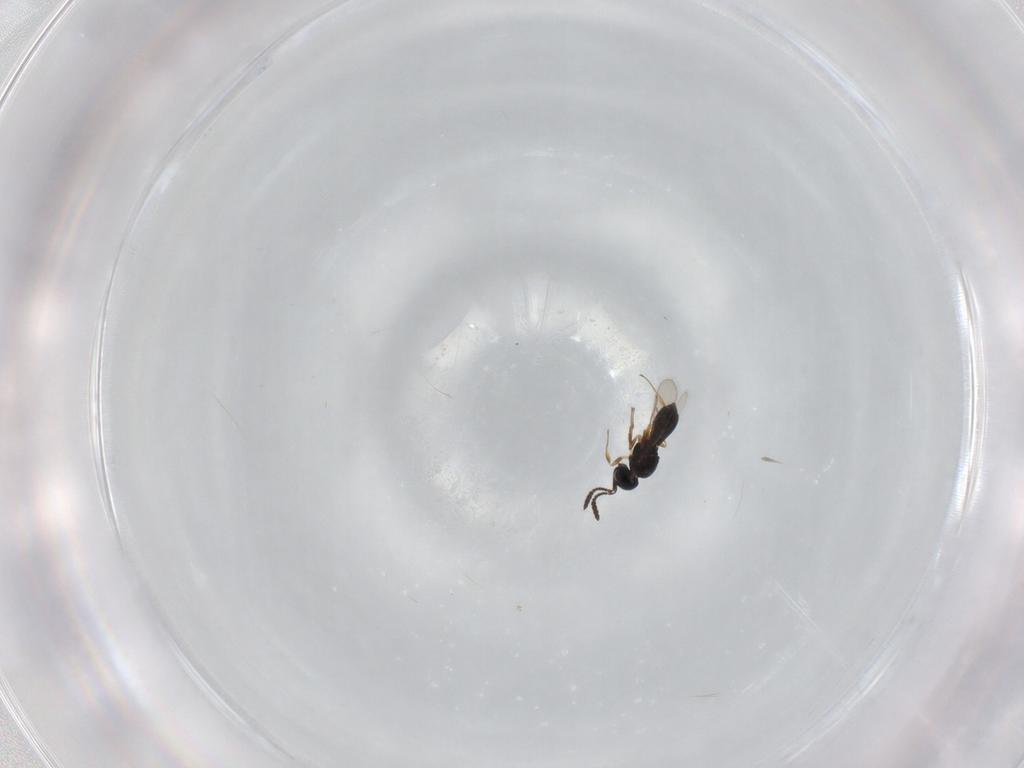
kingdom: Animalia
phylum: Arthropoda
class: Insecta
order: Hymenoptera
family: Scelionidae
